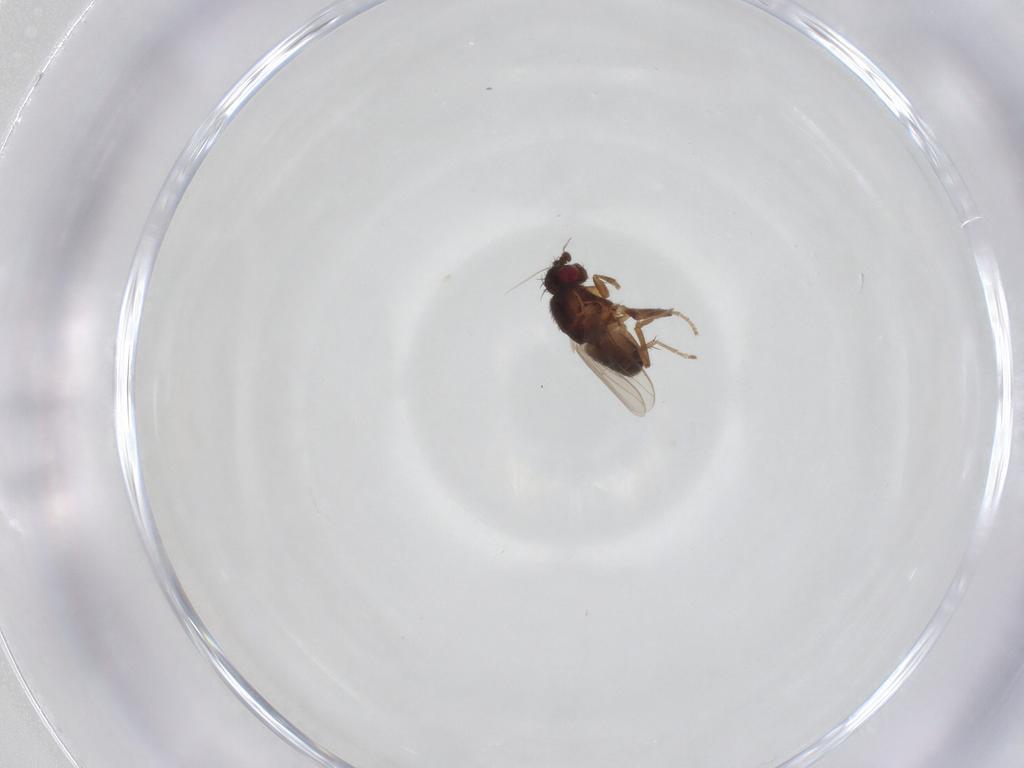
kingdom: Animalia
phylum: Arthropoda
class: Insecta
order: Diptera
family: Sphaeroceridae
